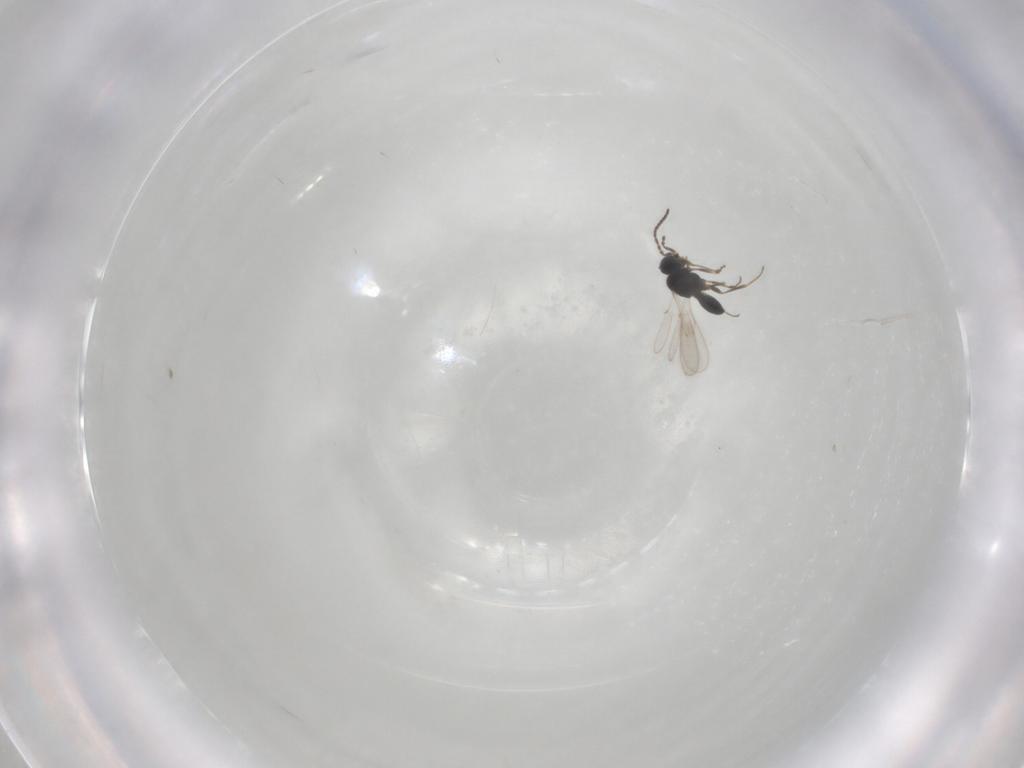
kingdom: Animalia
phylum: Arthropoda
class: Insecta
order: Hymenoptera
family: Scelionidae
